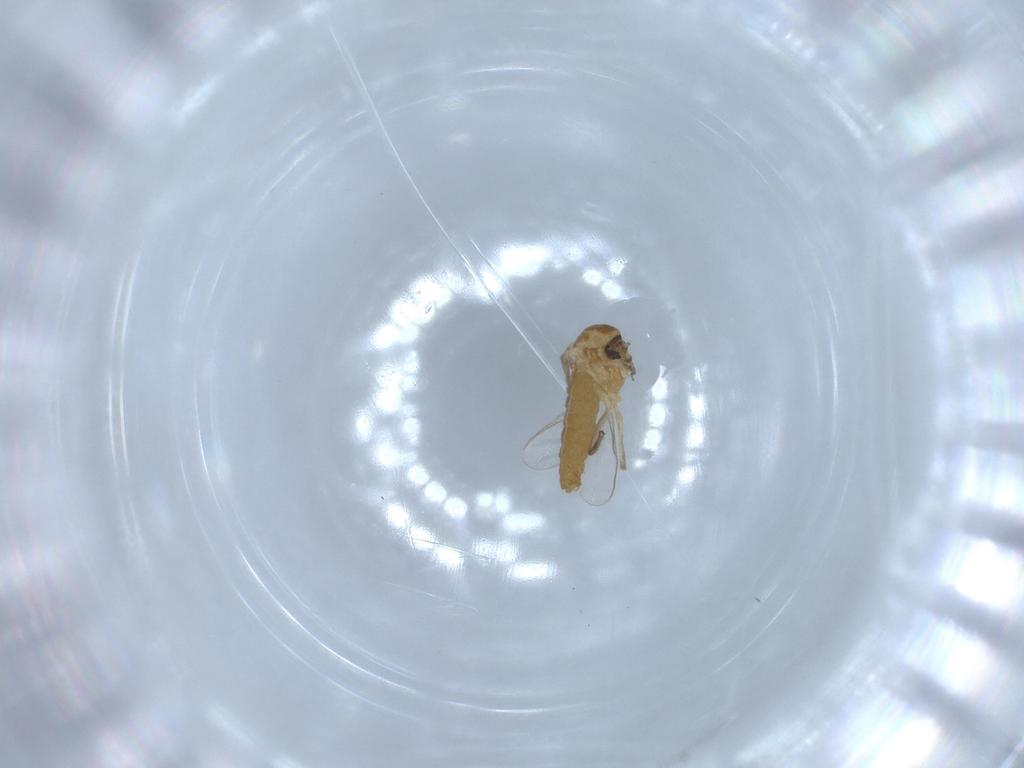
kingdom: Animalia
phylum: Arthropoda
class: Insecta
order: Diptera
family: Chironomidae
